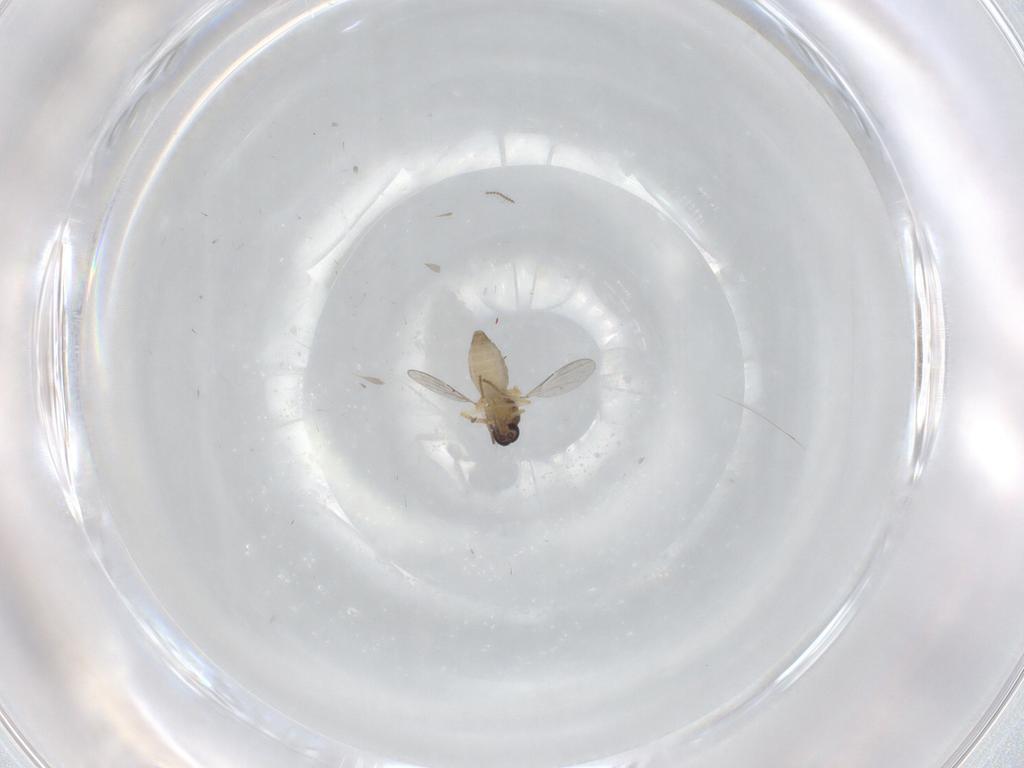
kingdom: Animalia
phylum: Arthropoda
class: Insecta
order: Diptera
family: Ceratopogonidae
